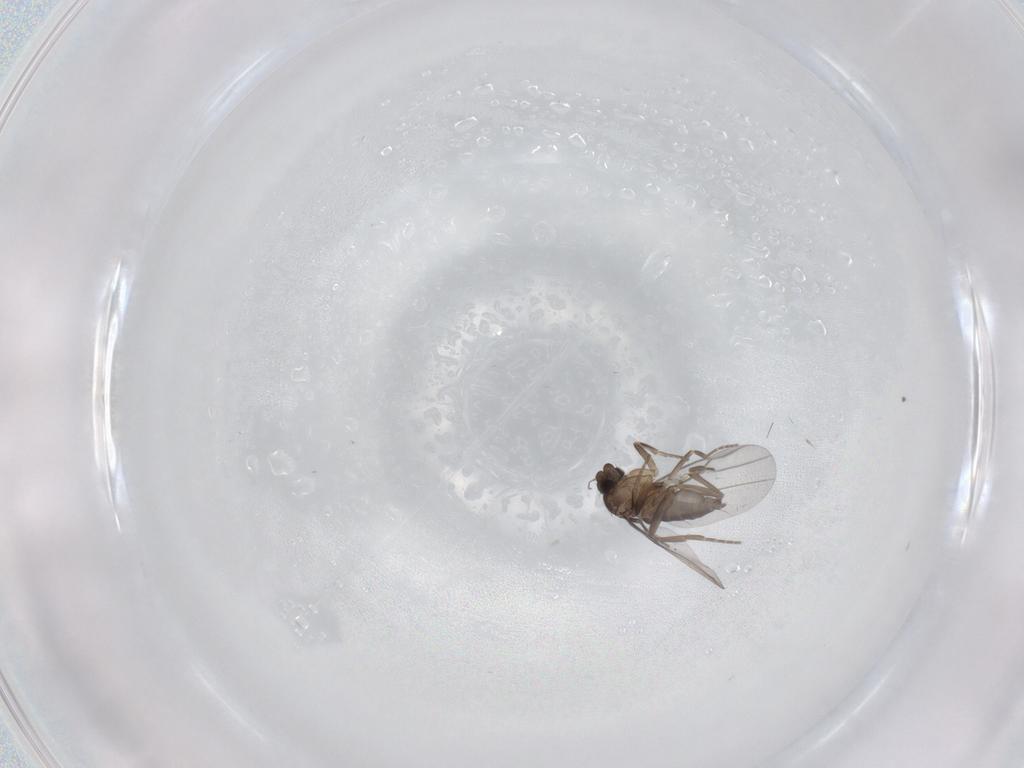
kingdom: Animalia
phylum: Arthropoda
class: Insecta
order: Diptera
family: Phoridae
